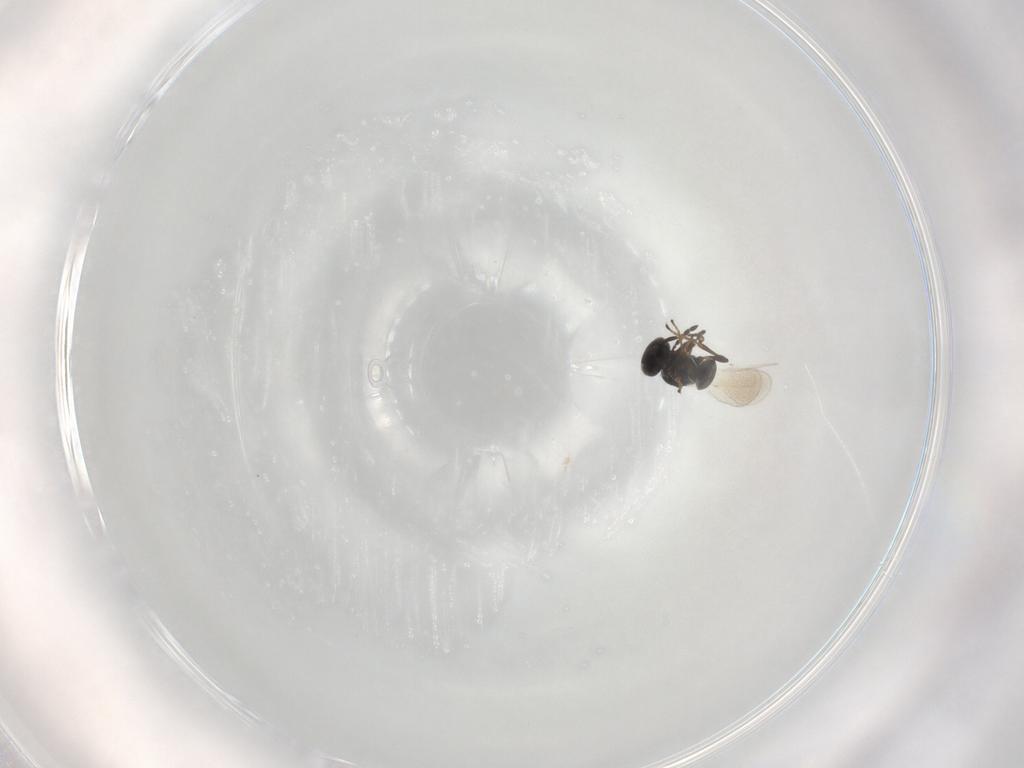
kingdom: Animalia
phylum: Arthropoda
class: Insecta
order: Hymenoptera
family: Platygastridae
